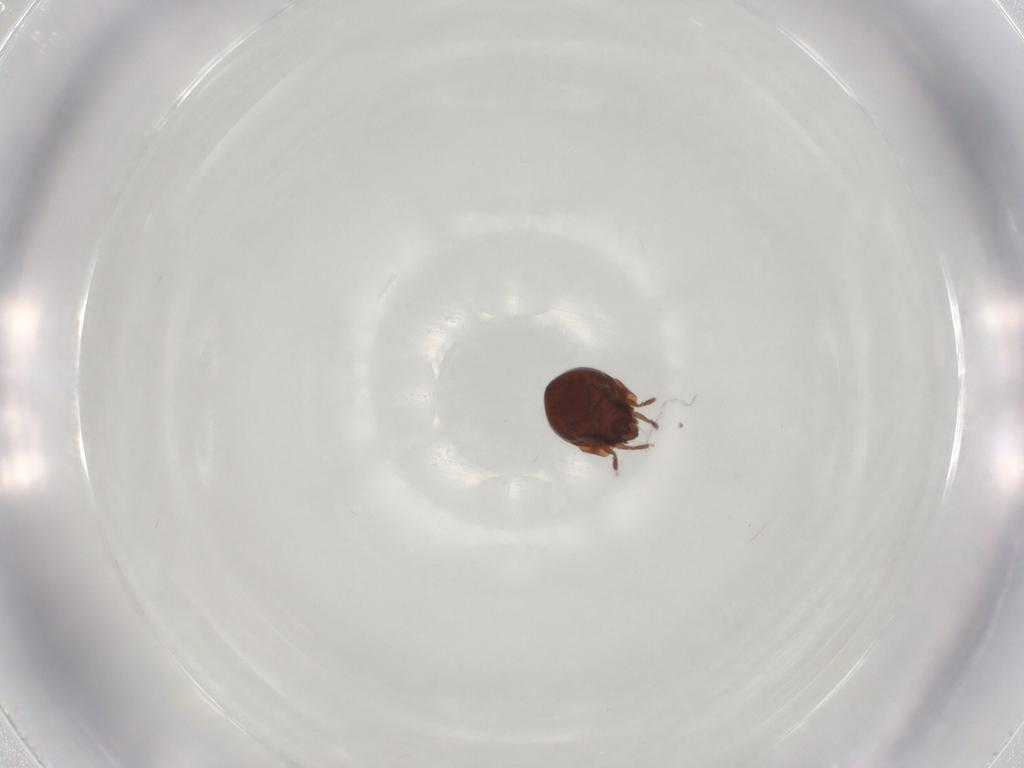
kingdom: Animalia
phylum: Arthropoda
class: Arachnida
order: Sarcoptiformes
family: Humerobatidae
